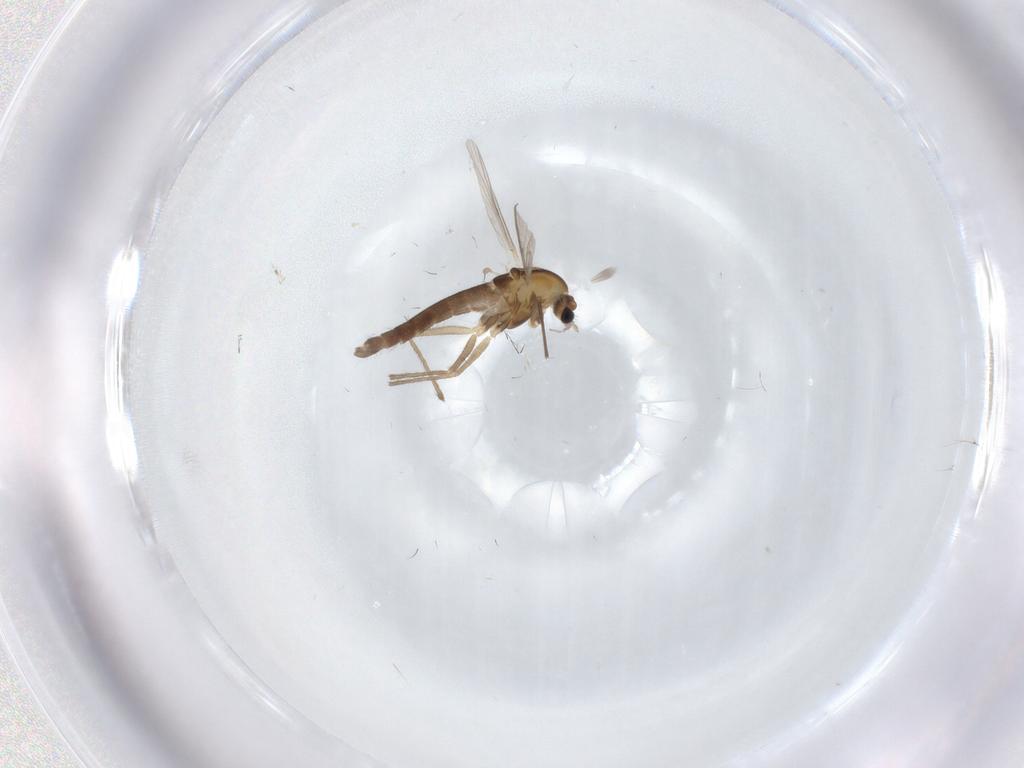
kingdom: Animalia
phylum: Arthropoda
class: Insecta
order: Diptera
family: Chironomidae
